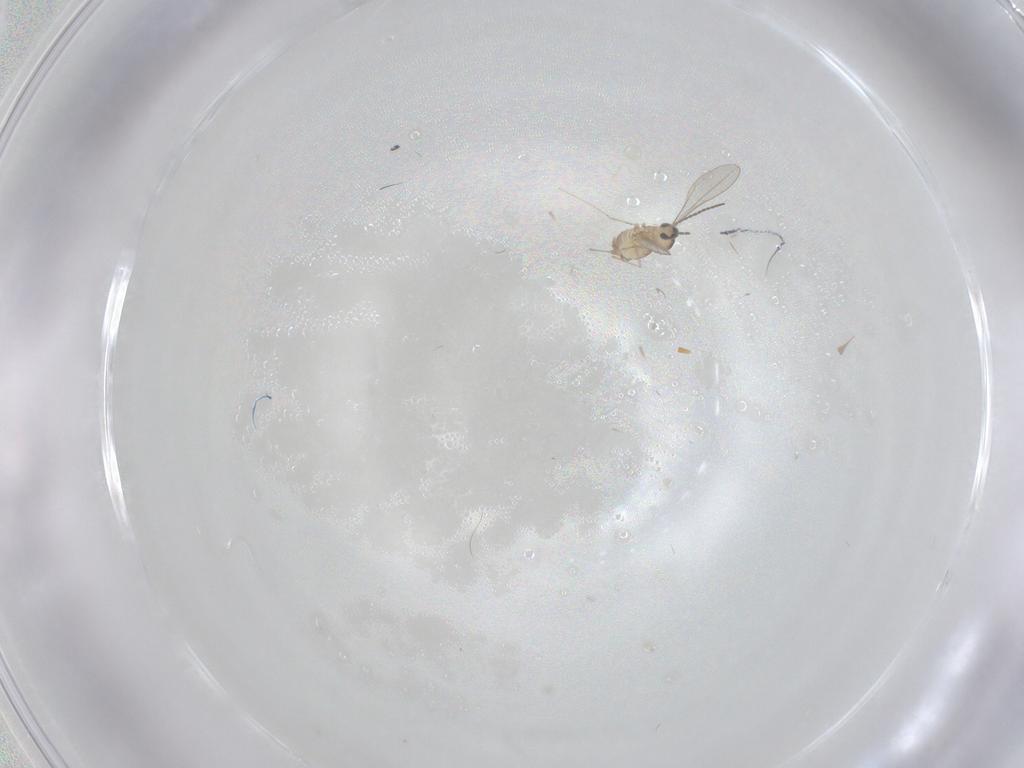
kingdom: Animalia
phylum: Arthropoda
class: Insecta
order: Diptera
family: Cecidomyiidae
